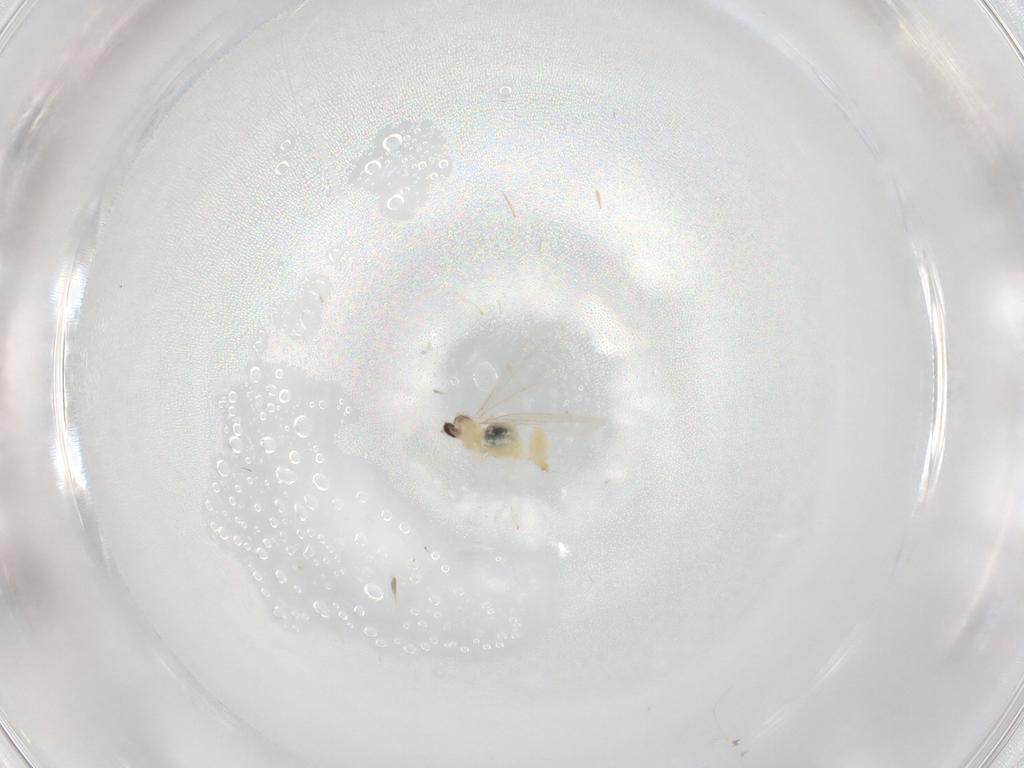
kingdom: Animalia
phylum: Arthropoda
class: Insecta
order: Diptera
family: Cecidomyiidae
